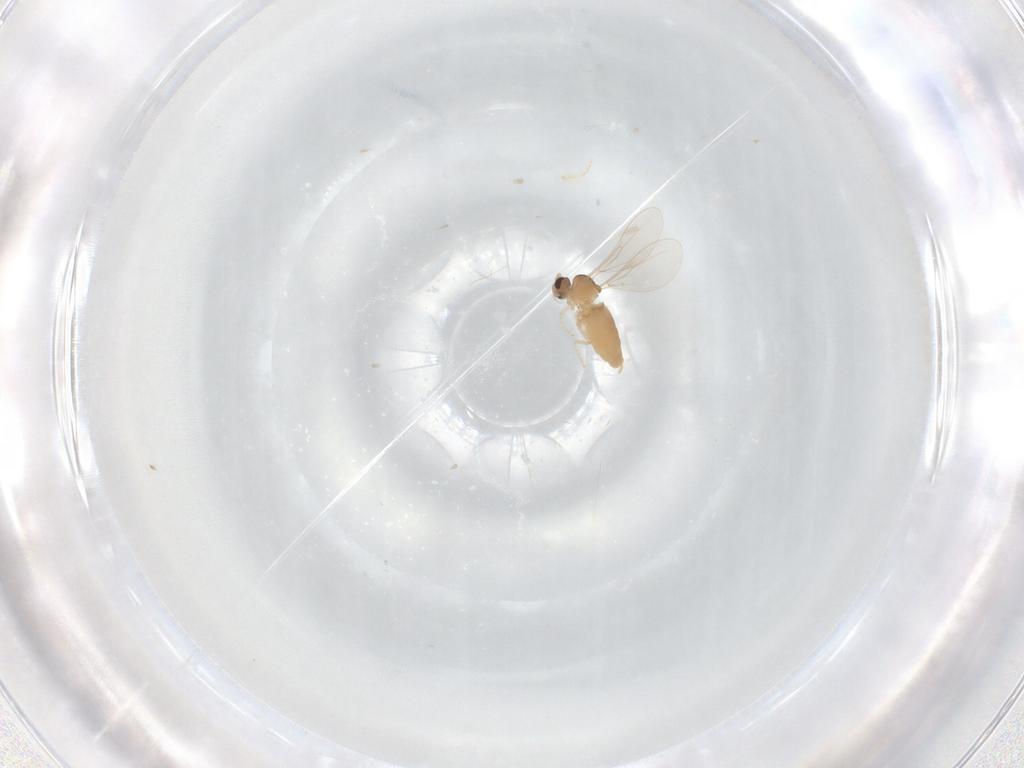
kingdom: Animalia
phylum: Arthropoda
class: Insecta
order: Diptera
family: Cecidomyiidae
